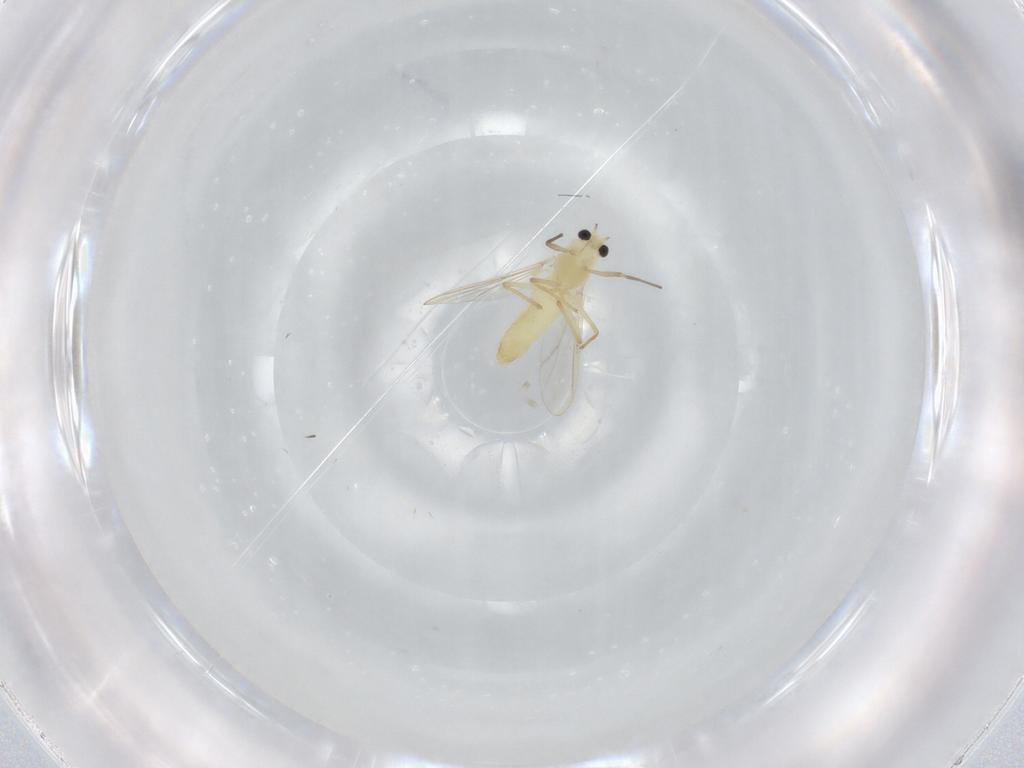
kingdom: Animalia
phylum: Arthropoda
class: Insecta
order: Diptera
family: Chironomidae
